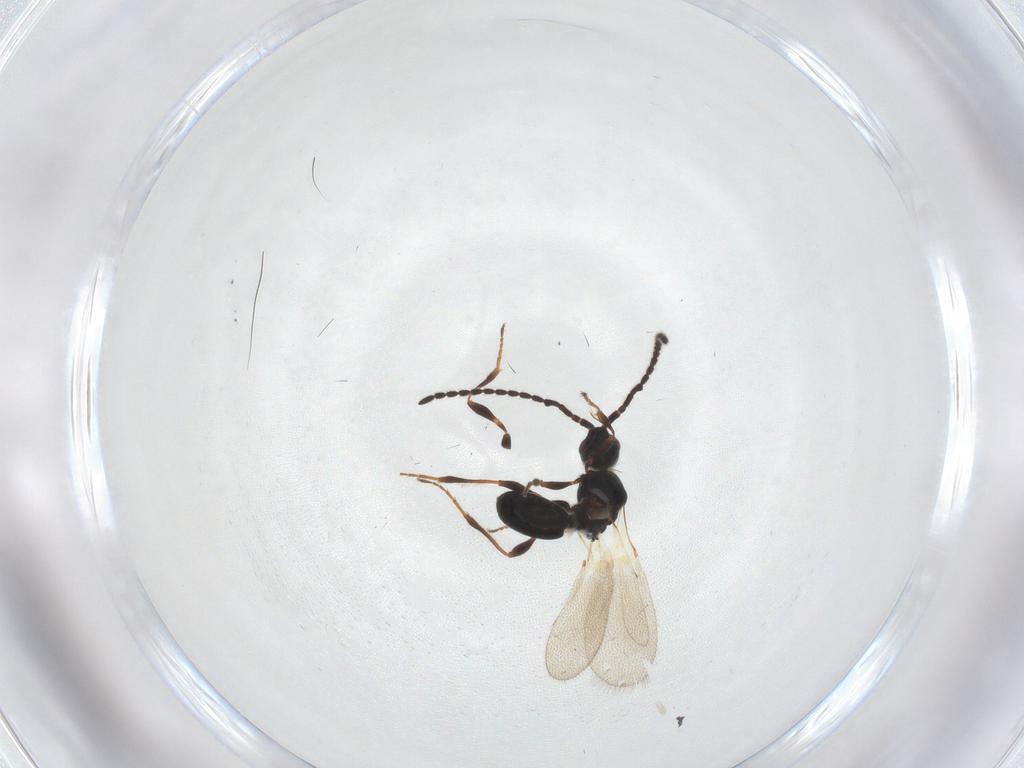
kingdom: Animalia
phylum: Arthropoda
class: Insecta
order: Hymenoptera
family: Diapriidae
